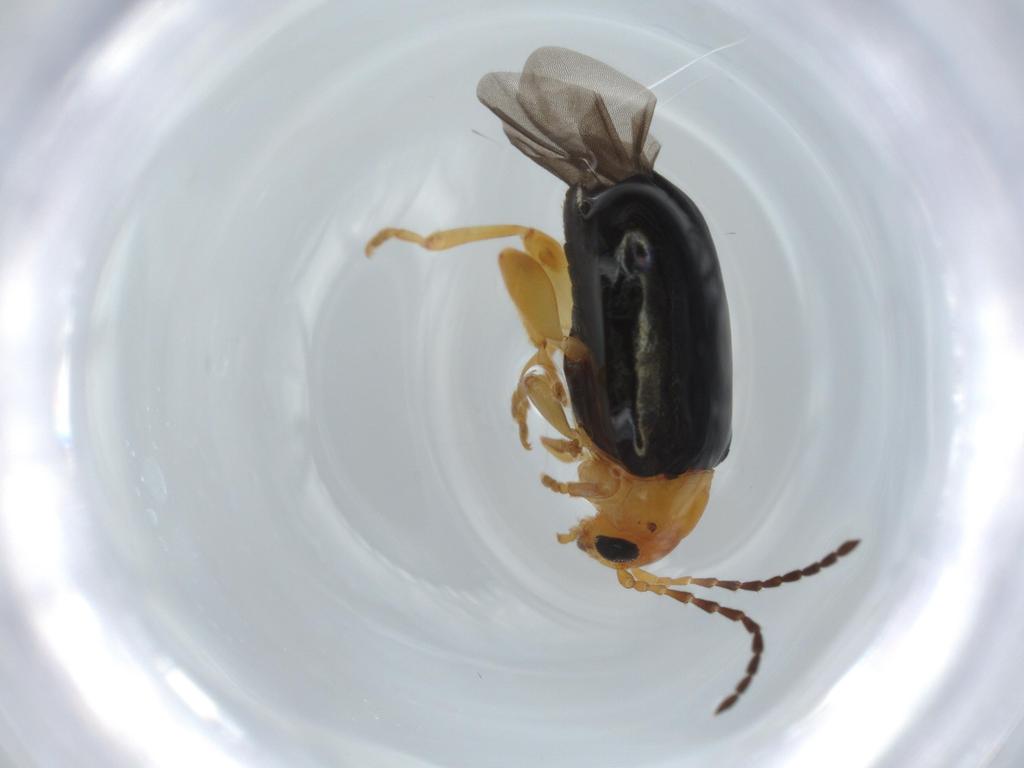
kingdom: Animalia
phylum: Arthropoda
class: Insecta
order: Coleoptera
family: Chrysomelidae
